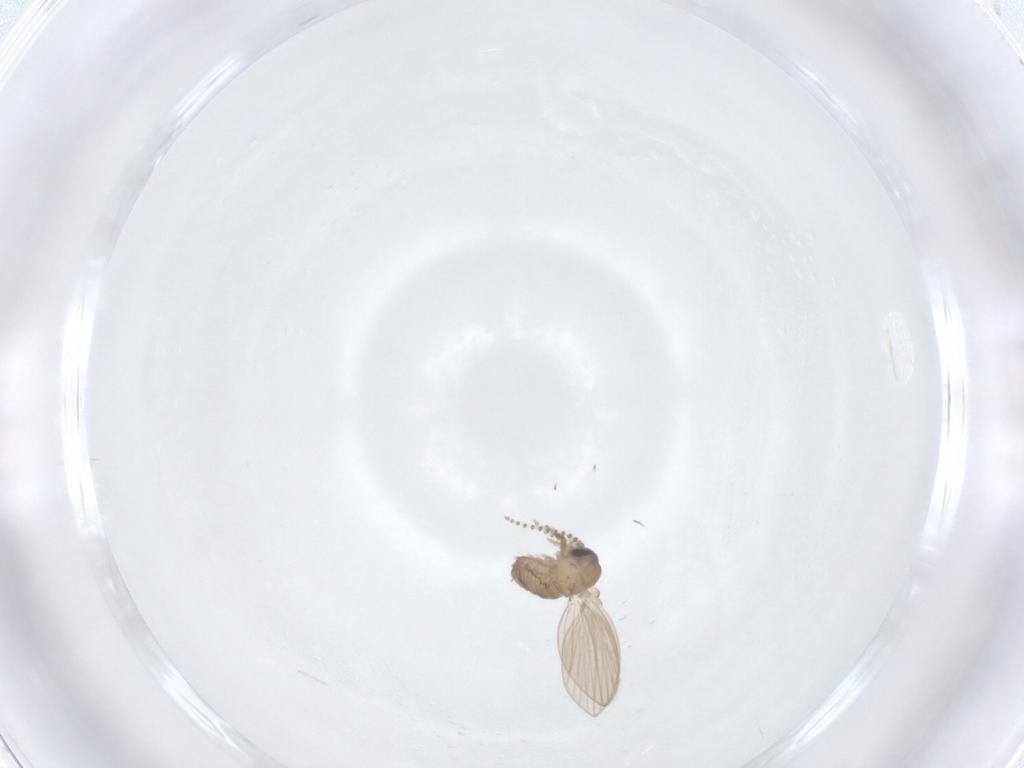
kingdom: Animalia
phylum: Arthropoda
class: Insecta
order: Diptera
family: Psychodidae
